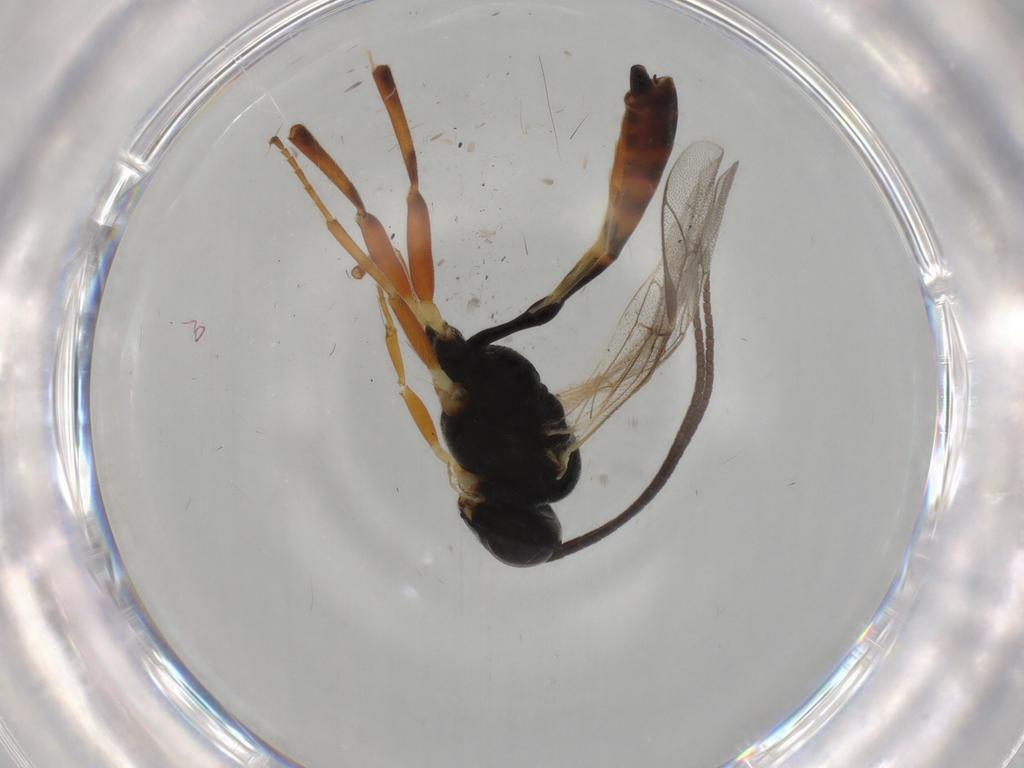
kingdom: Animalia
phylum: Arthropoda
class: Insecta
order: Hymenoptera
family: Ichneumonidae
